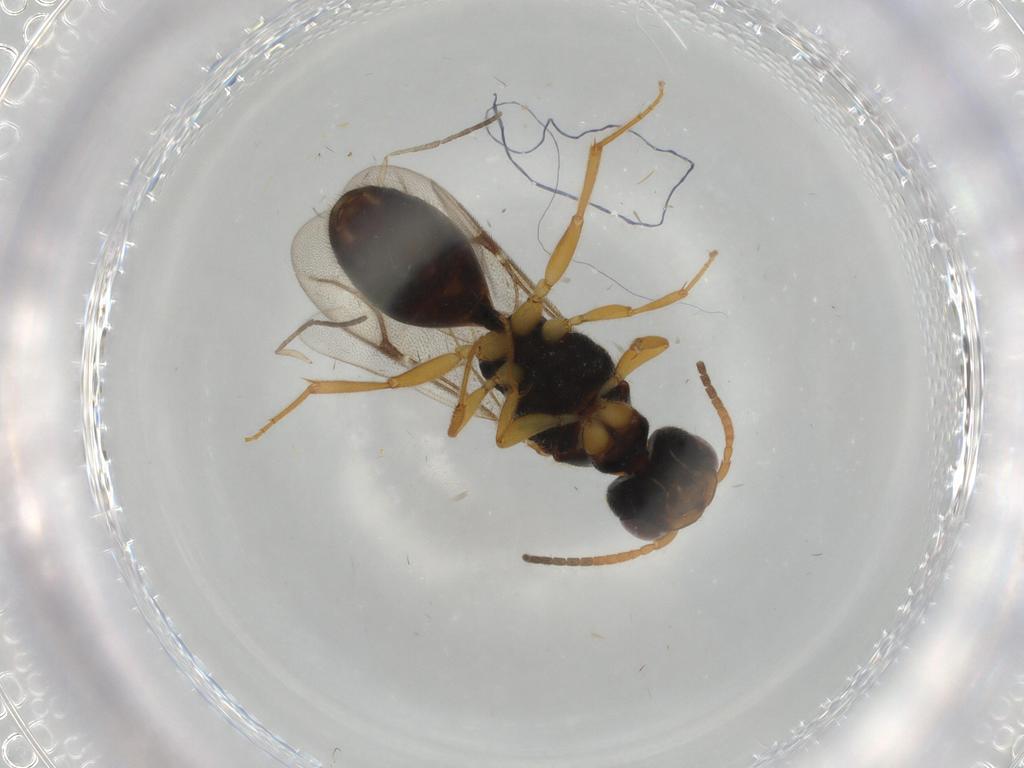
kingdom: Animalia
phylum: Arthropoda
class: Insecta
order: Hymenoptera
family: Bethylidae
